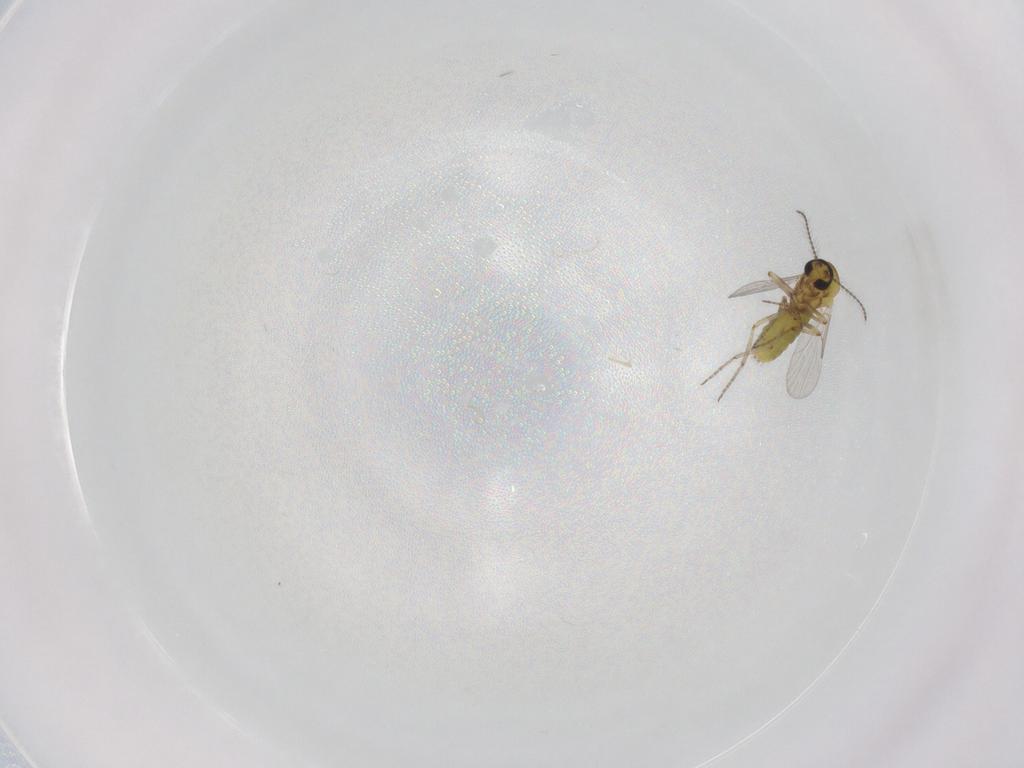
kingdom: Animalia
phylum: Arthropoda
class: Insecta
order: Diptera
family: Ceratopogonidae
